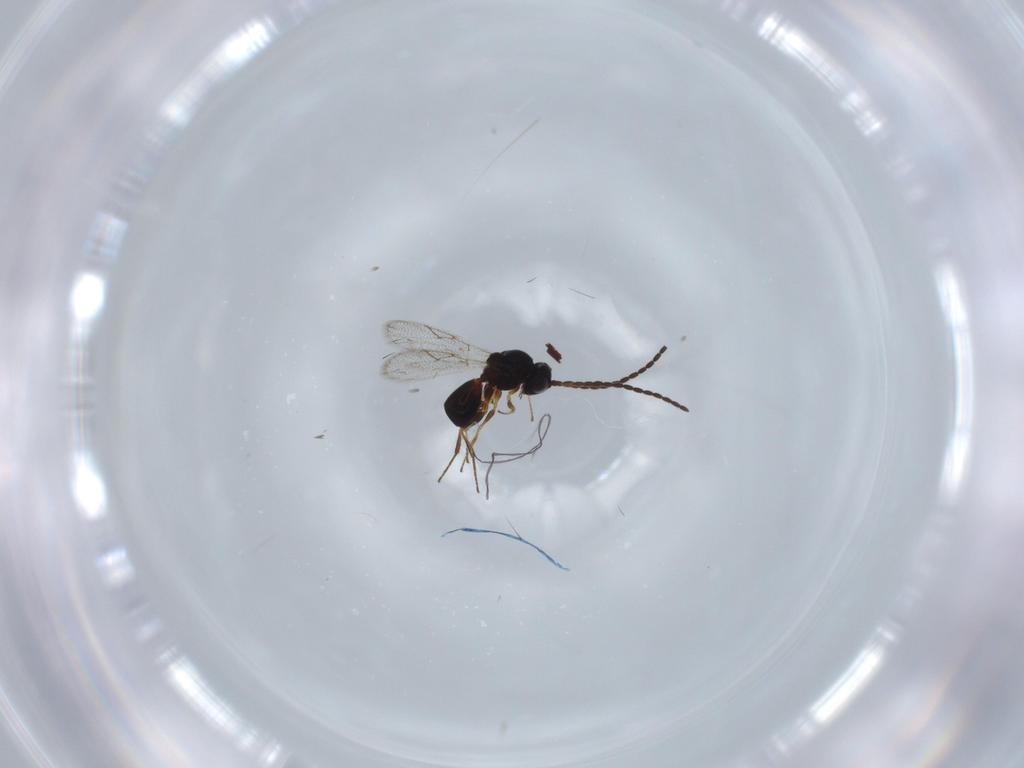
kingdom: Animalia
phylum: Arthropoda
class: Insecta
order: Hymenoptera
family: Figitidae
